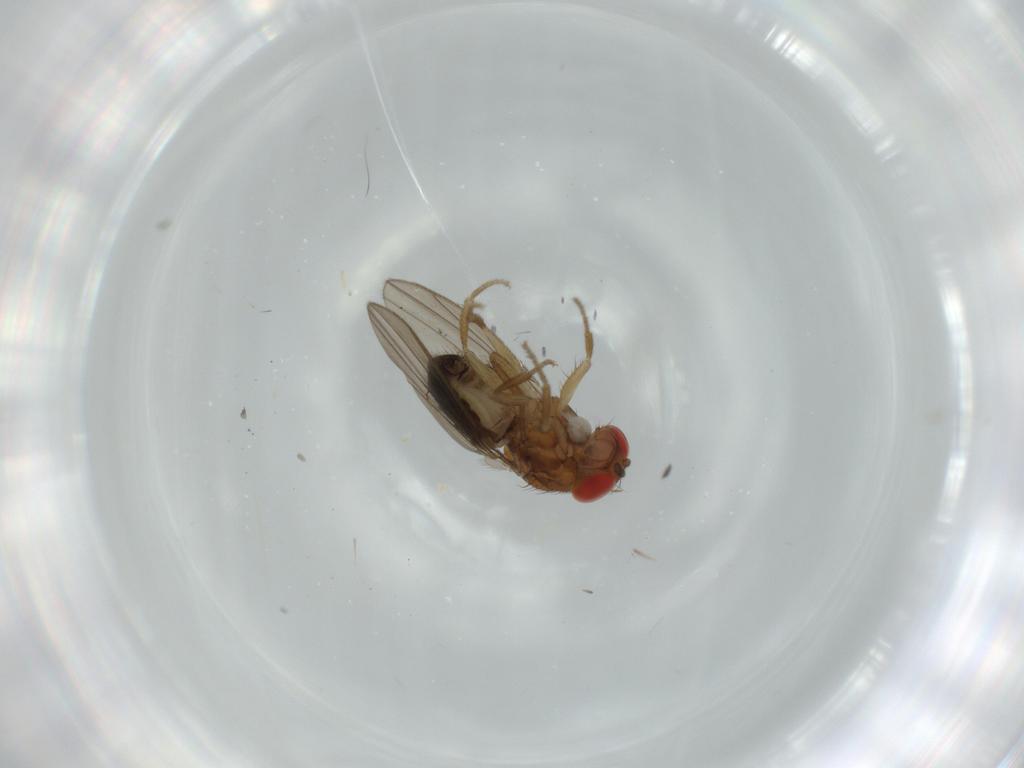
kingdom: Animalia
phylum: Arthropoda
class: Insecta
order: Diptera
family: Drosophilidae
